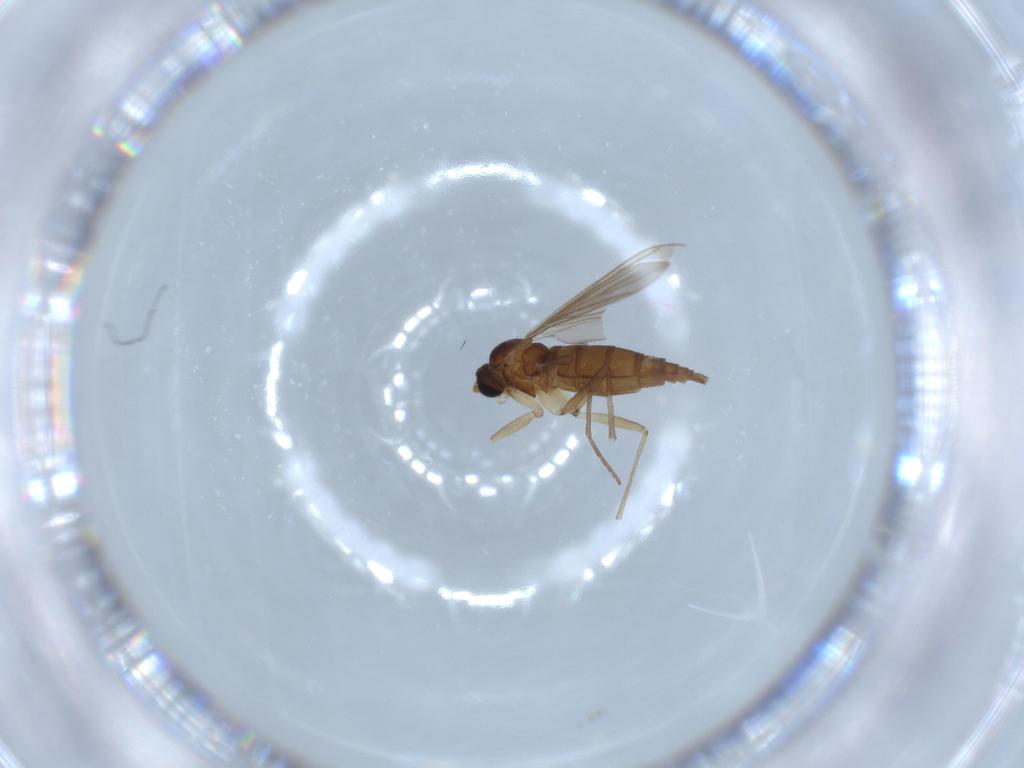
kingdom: Animalia
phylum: Arthropoda
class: Insecta
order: Diptera
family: Sciaridae
